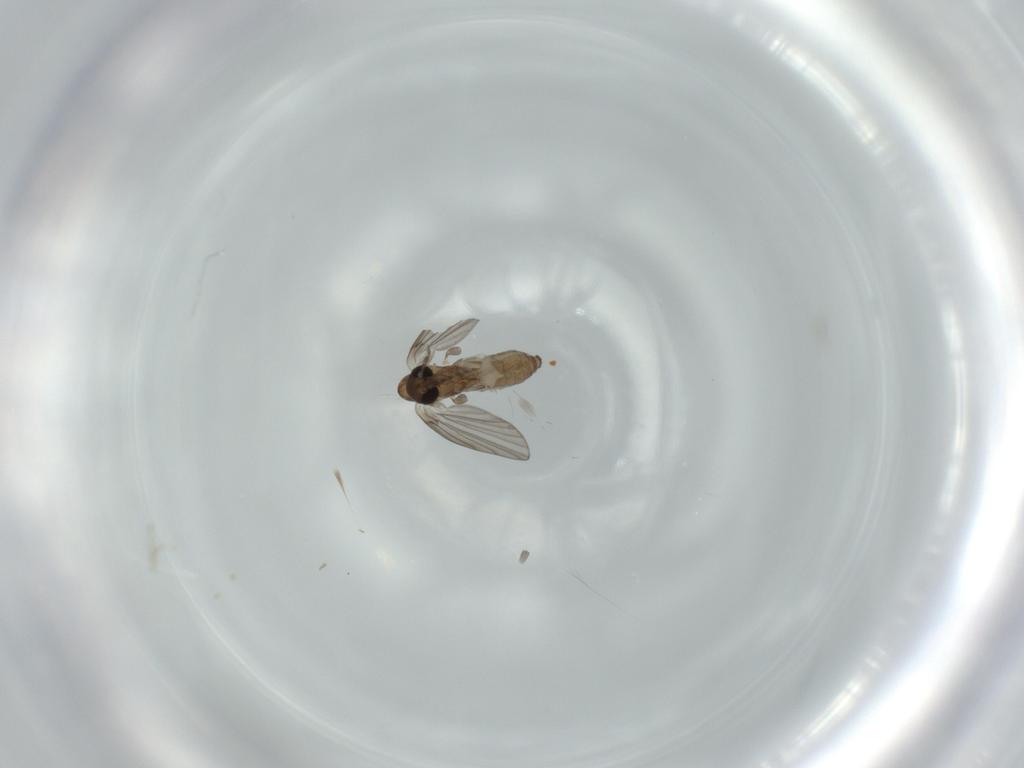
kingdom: Animalia
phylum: Arthropoda
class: Insecta
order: Diptera
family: Psychodidae
